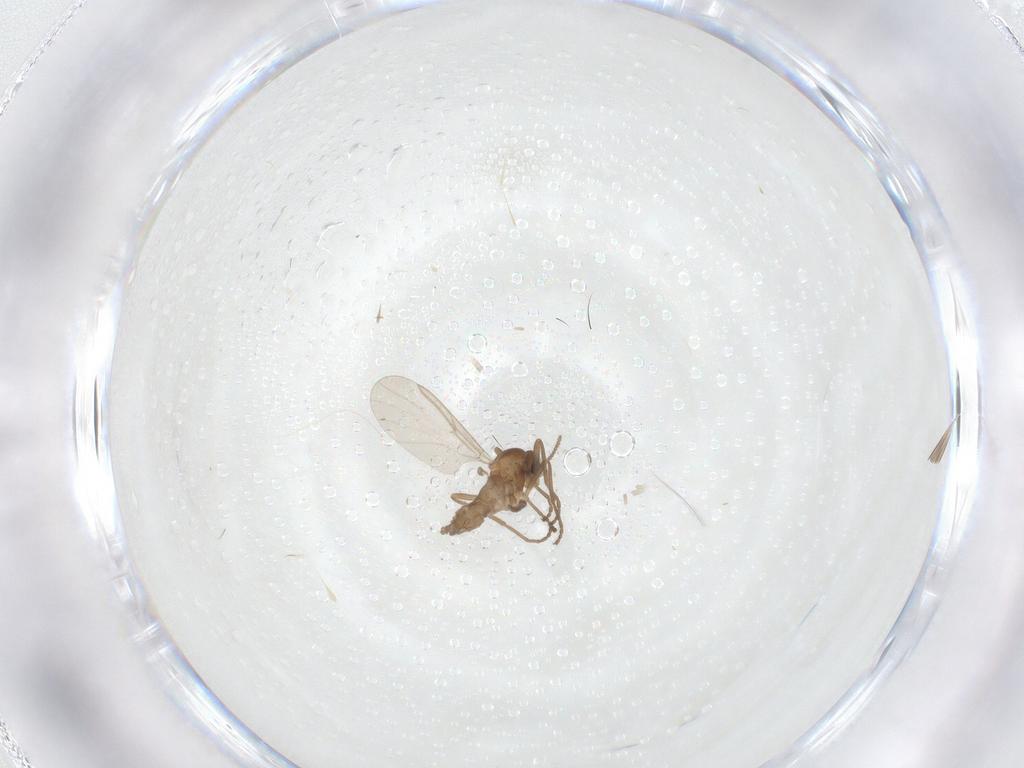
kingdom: Animalia
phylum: Arthropoda
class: Insecta
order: Diptera
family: Cecidomyiidae
